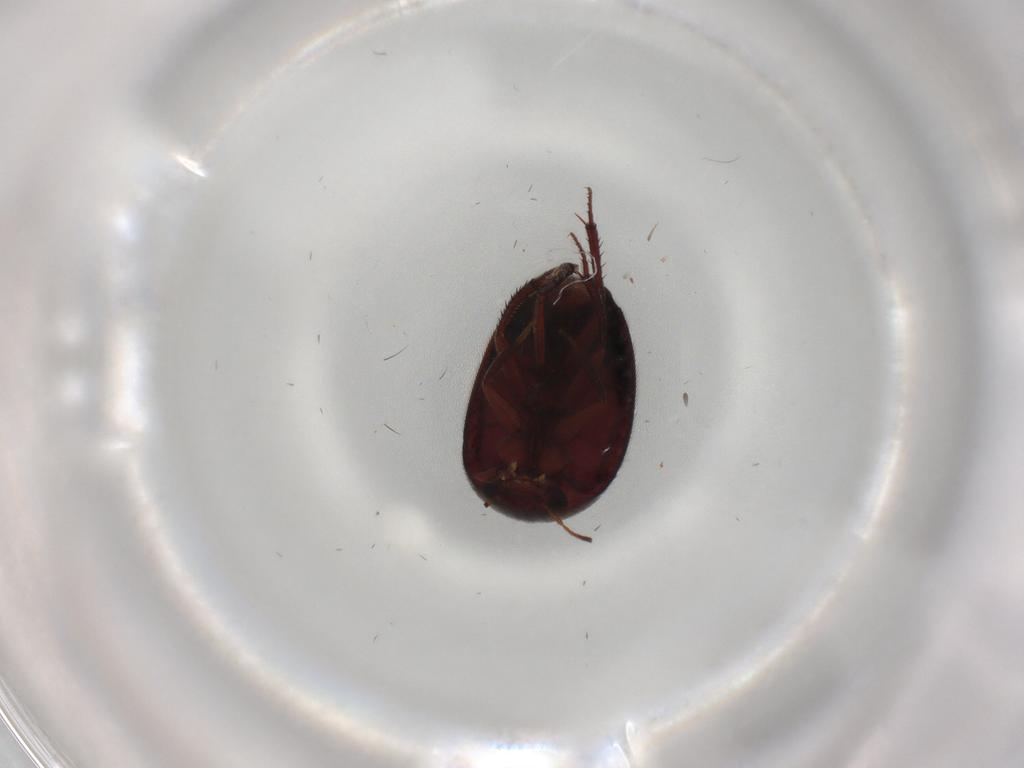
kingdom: Animalia
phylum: Arthropoda
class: Insecta
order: Coleoptera
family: Leiodidae
